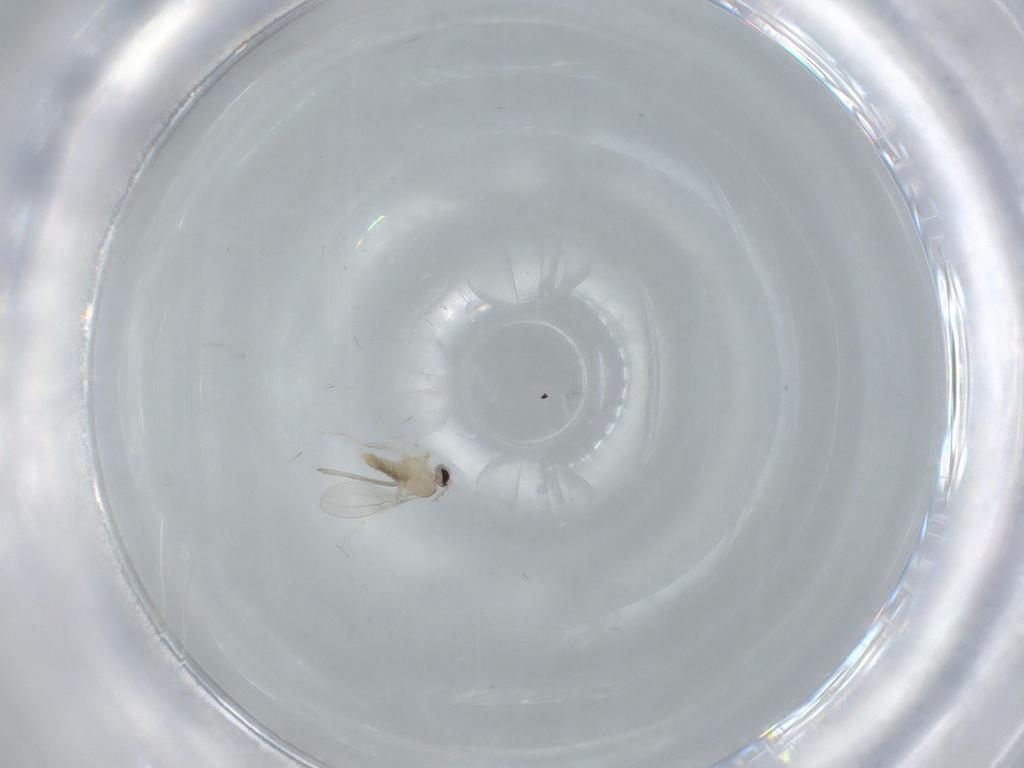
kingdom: Animalia
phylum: Arthropoda
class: Insecta
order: Diptera
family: Cecidomyiidae
